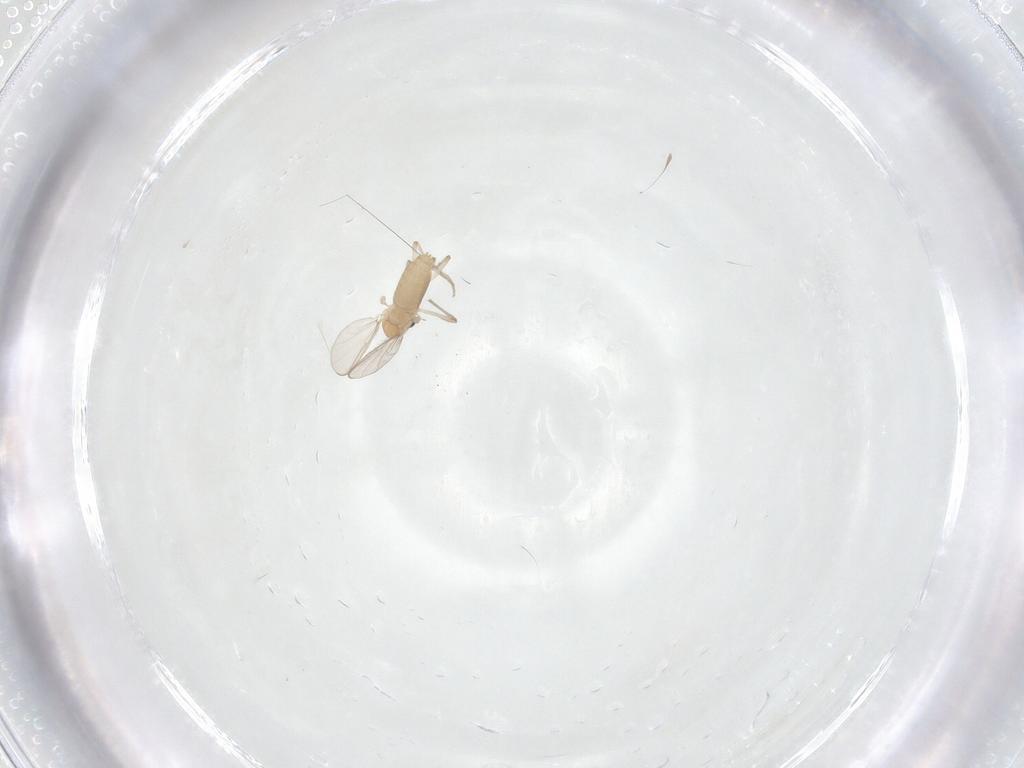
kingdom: Animalia
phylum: Arthropoda
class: Insecta
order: Diptera
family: Chironomidae
